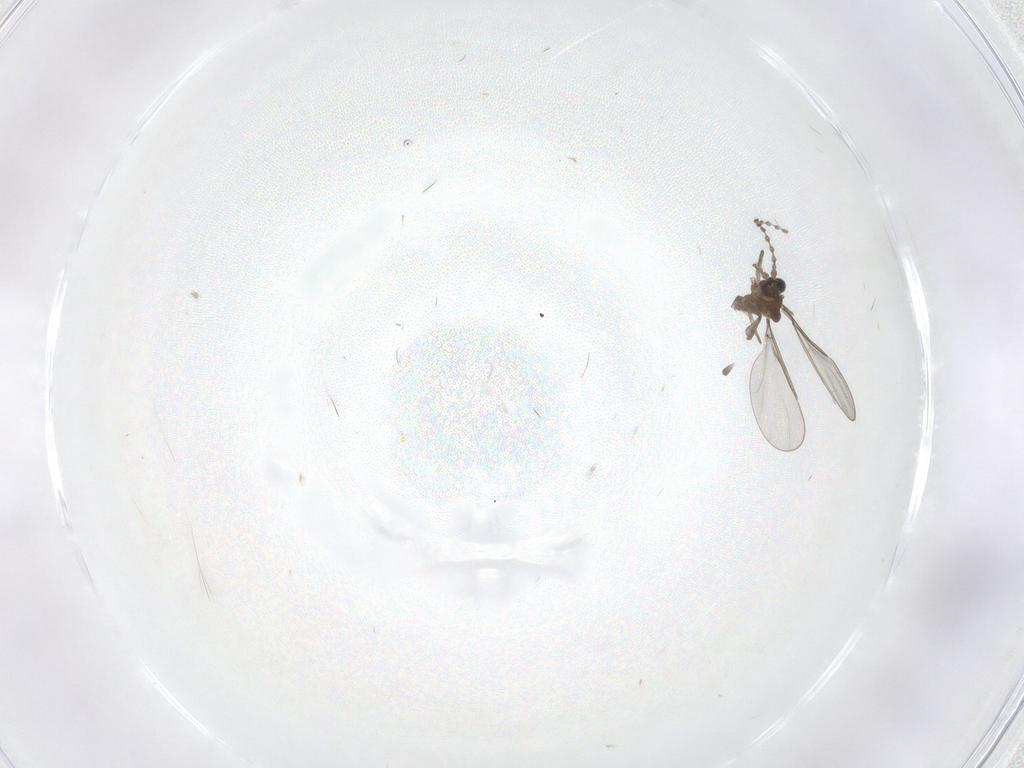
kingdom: Animalia
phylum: Arthropoda
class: Insecta
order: Diptera
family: Cecidomyiidae
